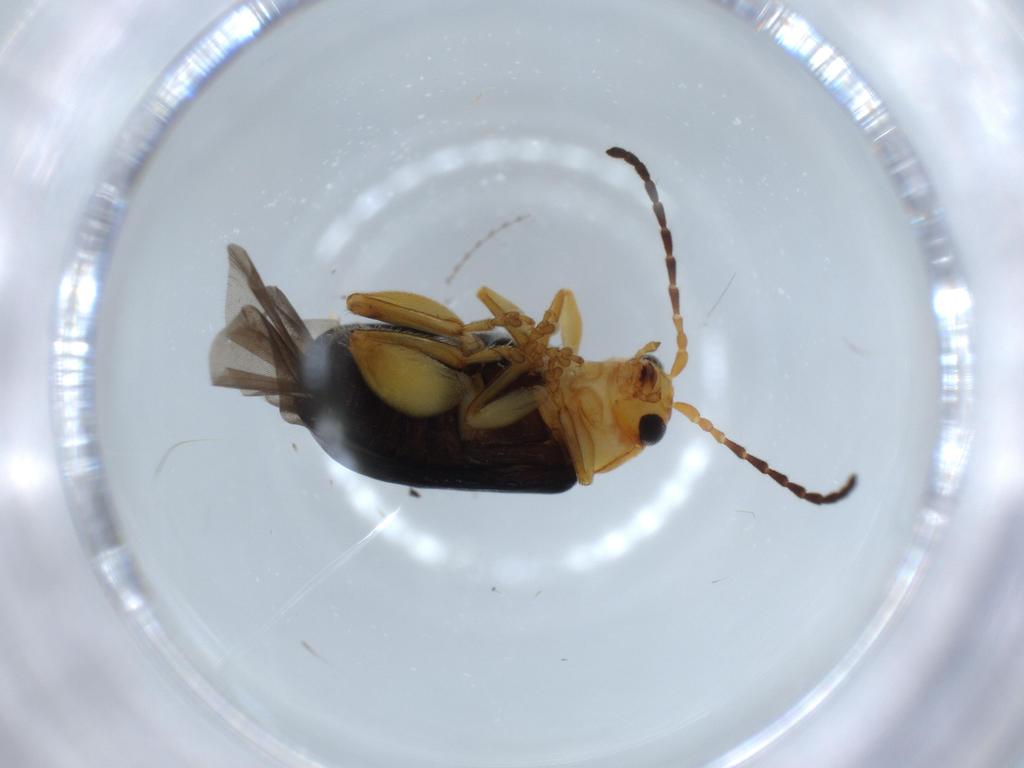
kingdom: Animalia
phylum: Arthropoda
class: Insecta
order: Coleoptera
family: Chrysomelidae
